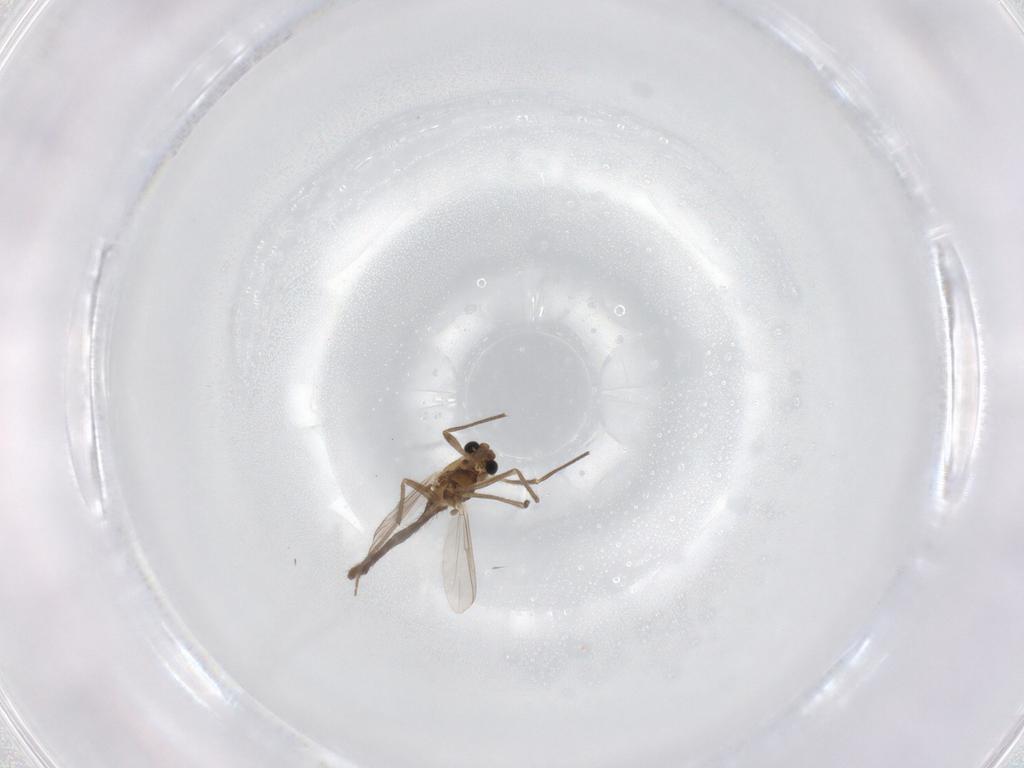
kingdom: Animalia
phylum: Arthropoda
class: Insecta
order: Diptera
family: Chironomidae
